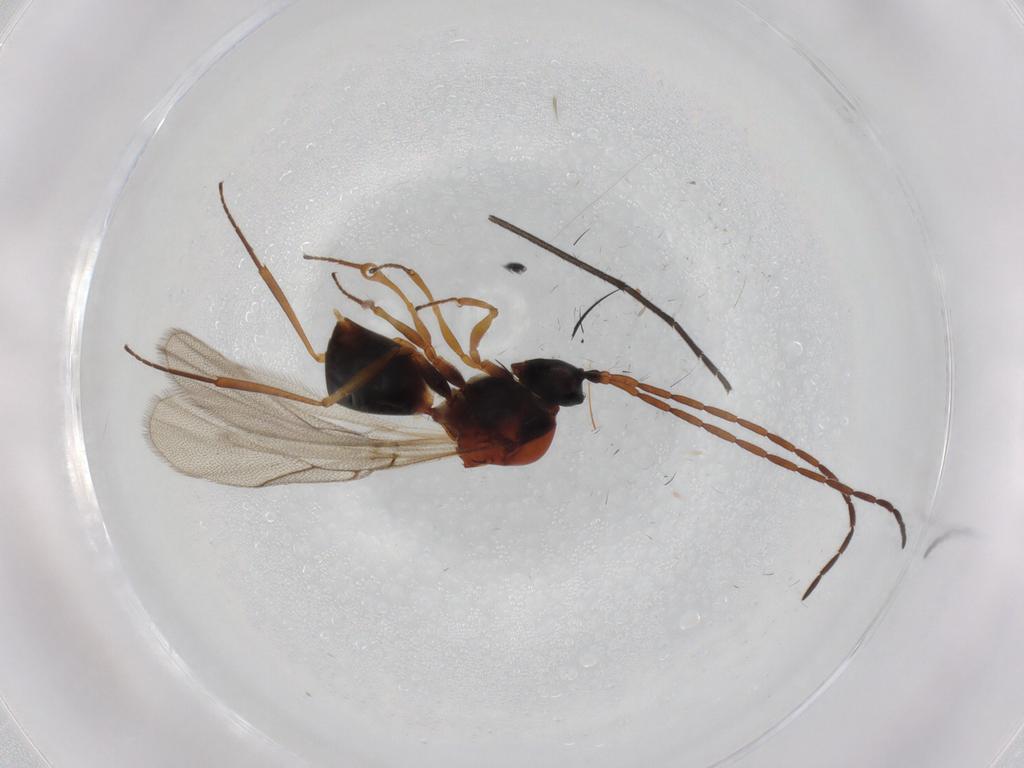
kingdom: Animalia
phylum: Arthropoda
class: Insecta
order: Hymenoptera
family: Figitidae
